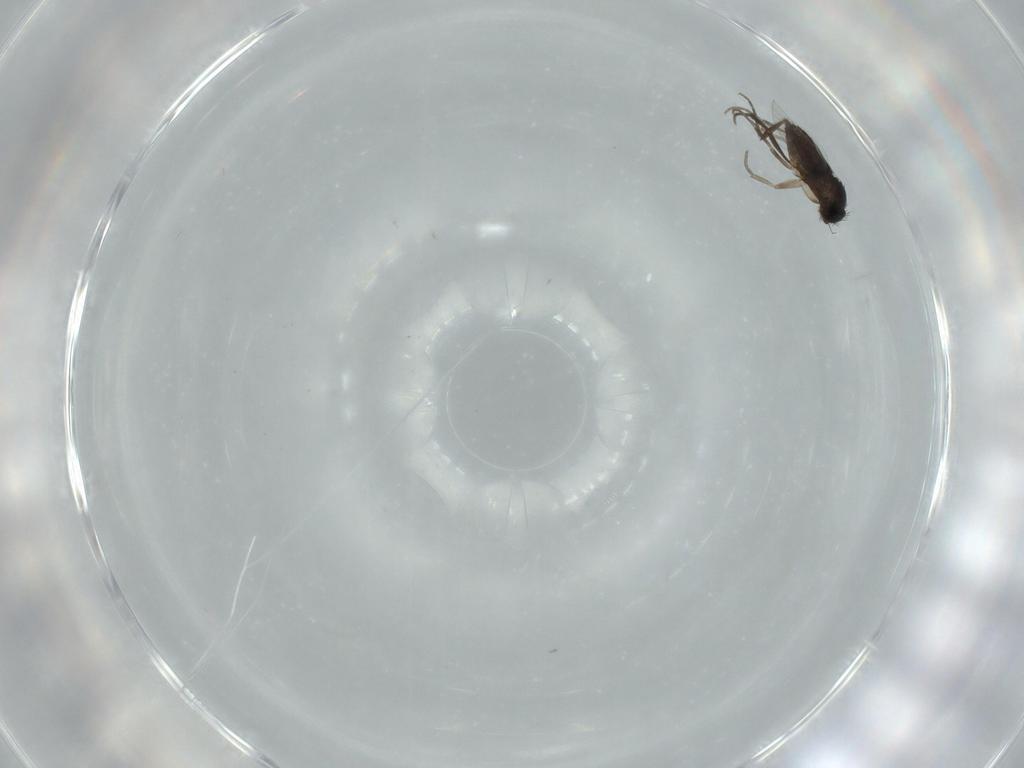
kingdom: Animalia
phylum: Arthropoda
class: Insecta
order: Diptera
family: Phoridae
